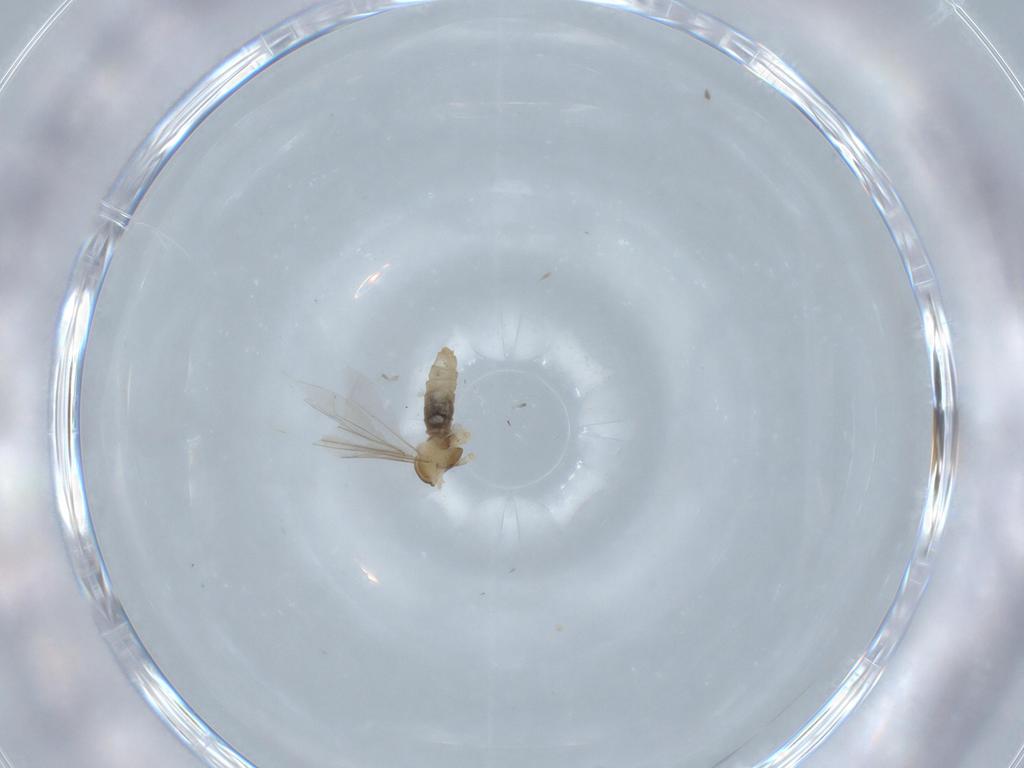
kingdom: Animalia
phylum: Arthropoda
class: Insecta
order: Diptera
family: Cecidomyiidae
